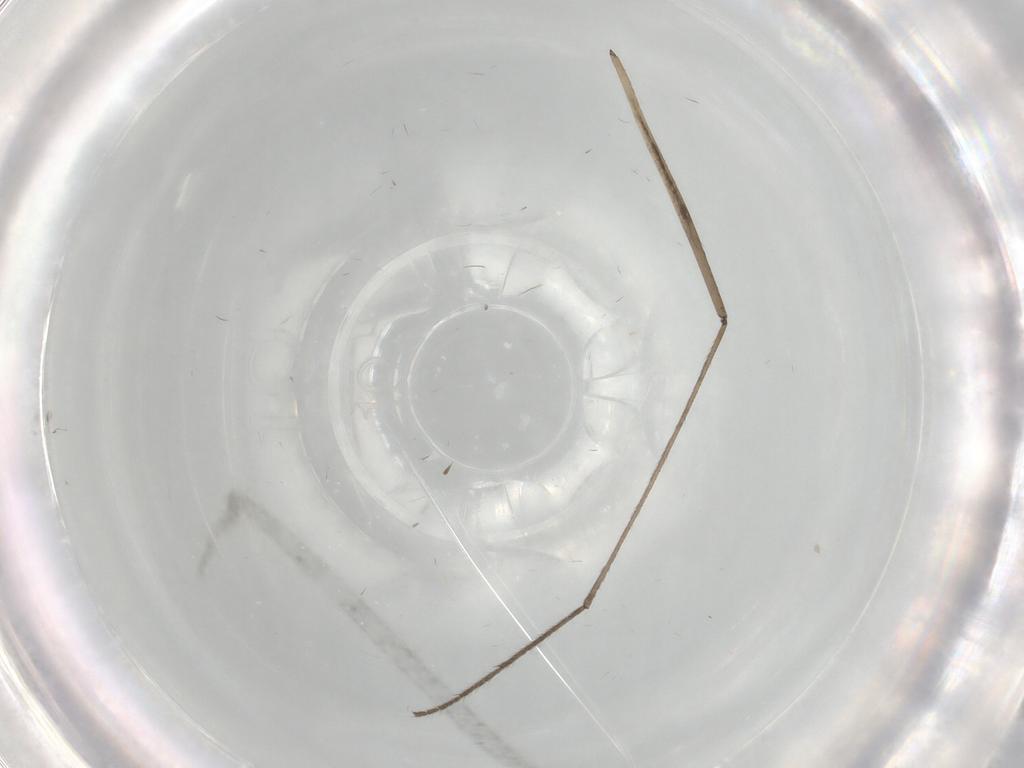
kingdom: Animalia
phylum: Arthropoda
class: Insecta
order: Diptera
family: Limoniidae
